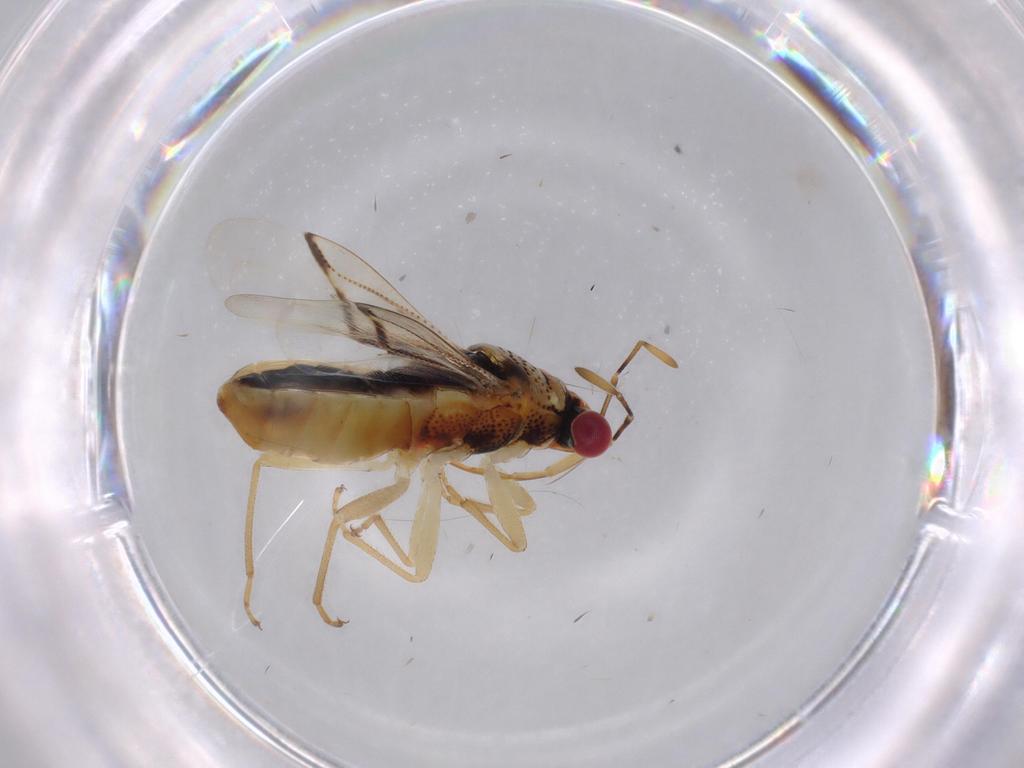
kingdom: Animalia
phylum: Arthropoda
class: Insecta
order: Hemiptera
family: Geocoridae
